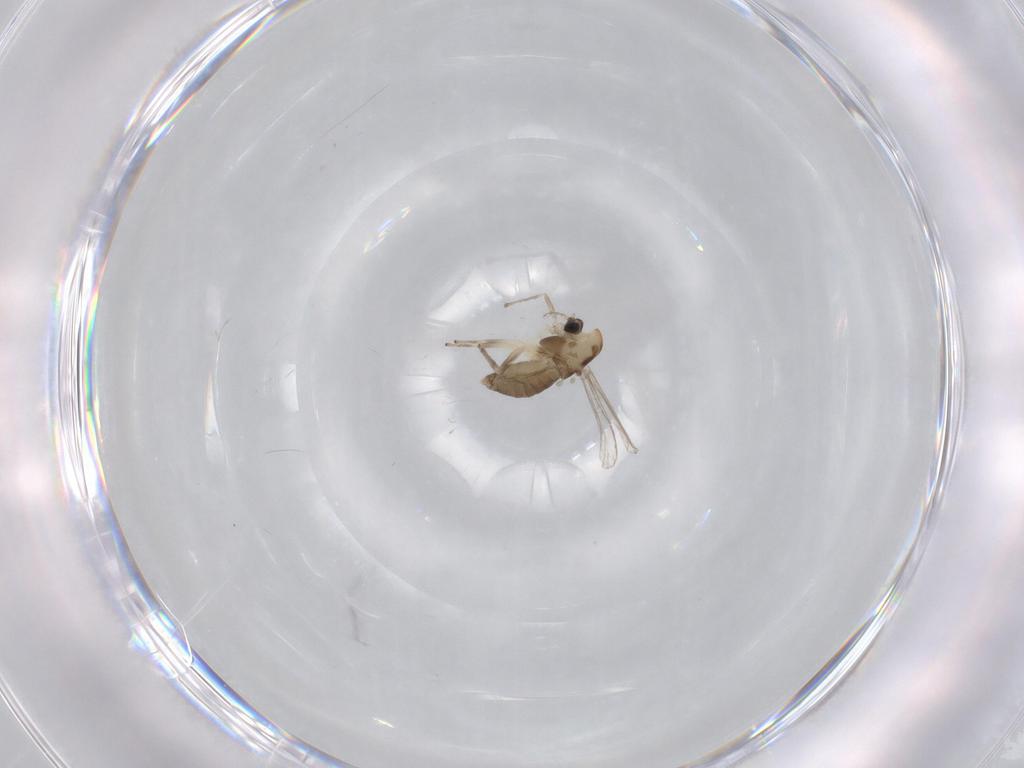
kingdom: Animalia
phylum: Arthropoda
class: Insecta
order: Diptera
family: Chironomidae
